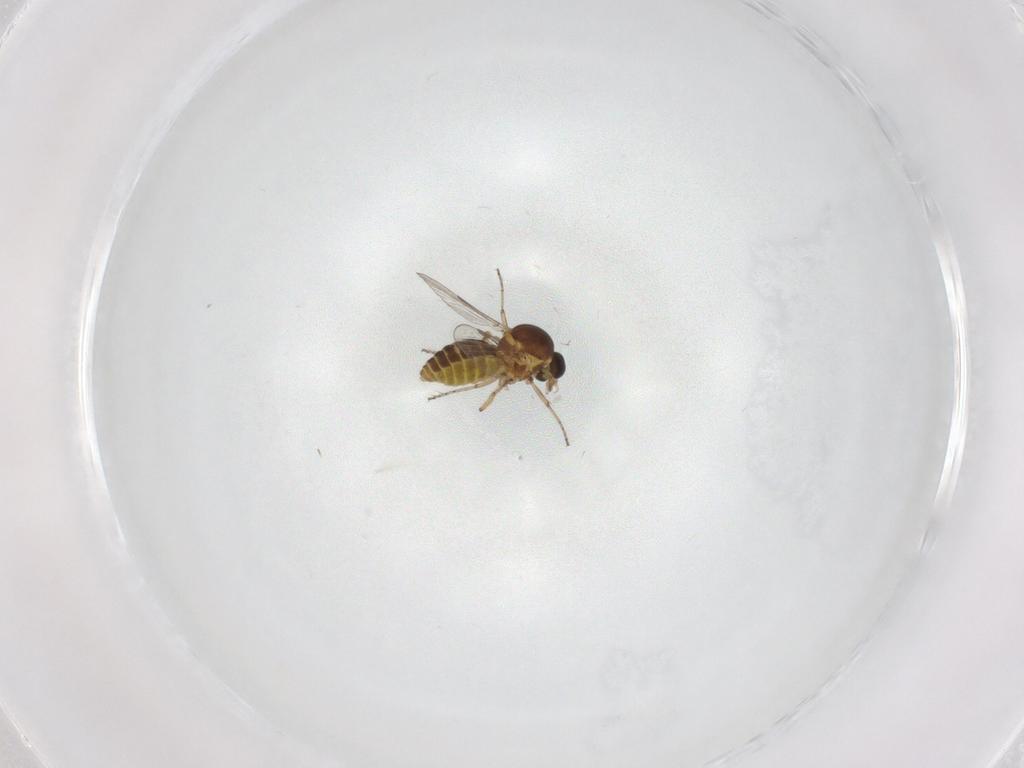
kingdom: Animalia
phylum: Arthropoda
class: Insecta
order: Diptera
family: Ceratopogonidae
